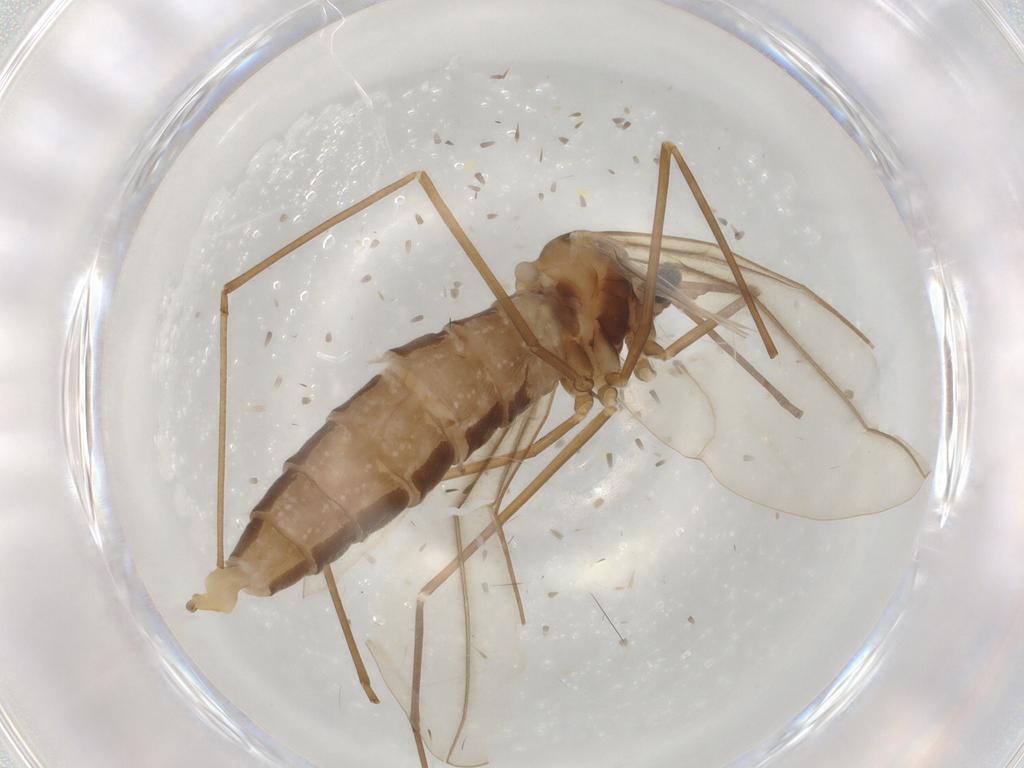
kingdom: Animalia
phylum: Arthropoda
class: Insecta
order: Diptera
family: Cecidomyiidae
